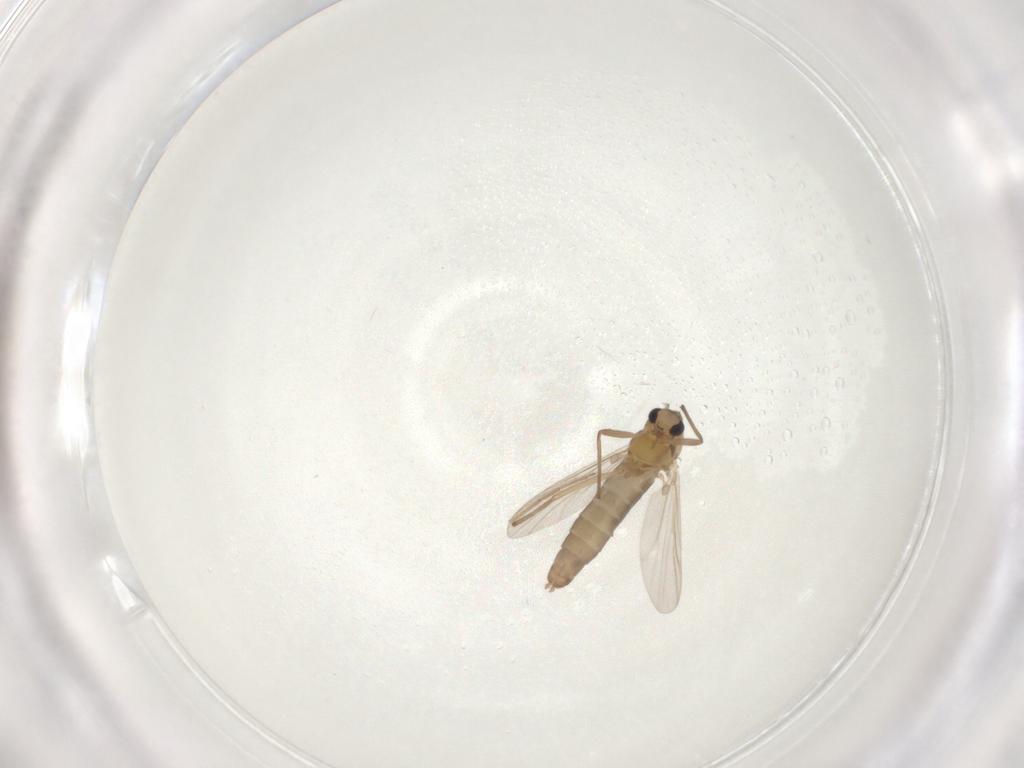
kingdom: Animalia
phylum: Arthropoda
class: Insecta
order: Diptera
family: Chironomidae
